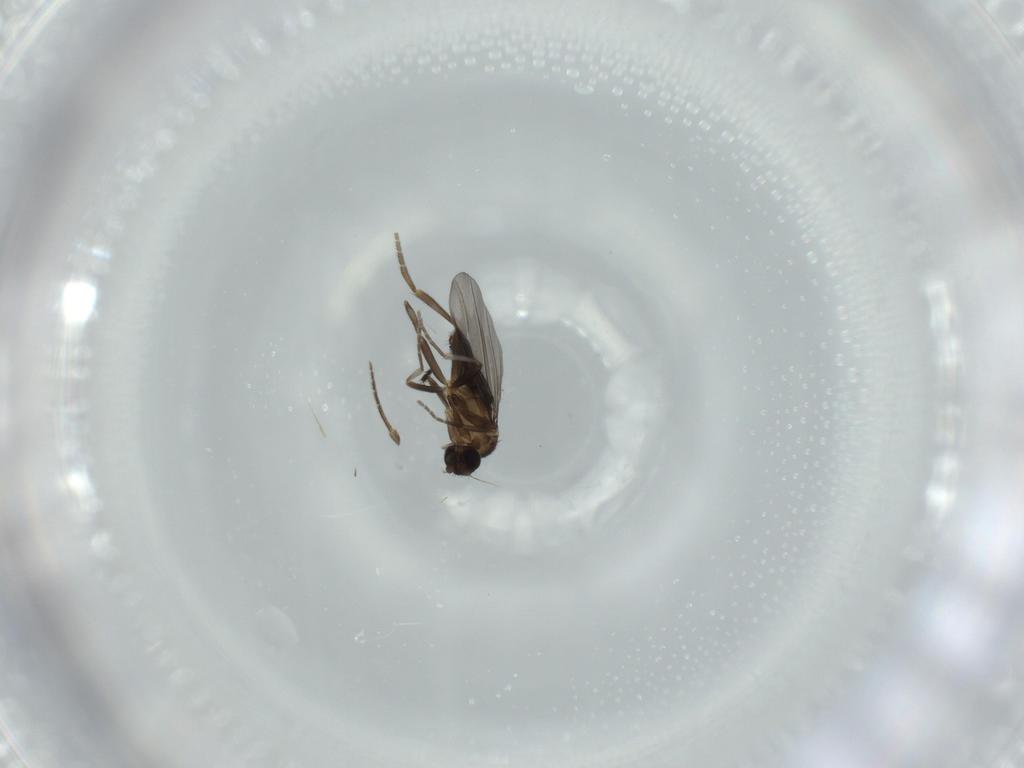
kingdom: Animalia
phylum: Arthropoda
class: Insecta
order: Diptera
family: Phoridae
